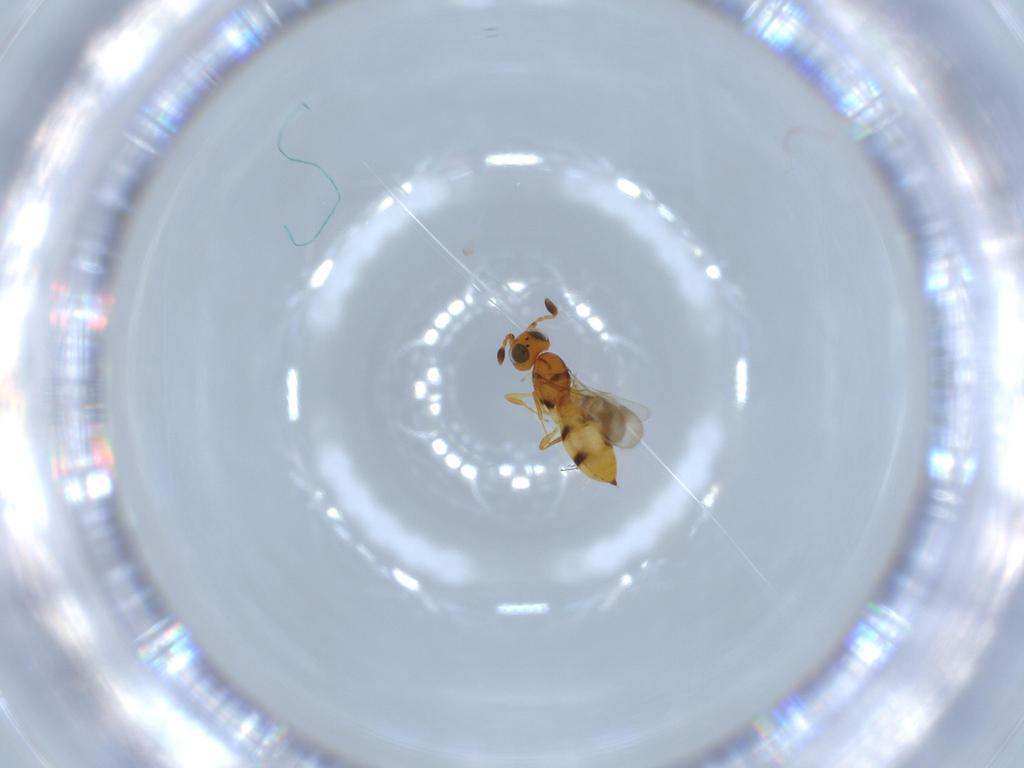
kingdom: Animalia
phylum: Arthropoda
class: Insecta
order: Hymenoptera
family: Scelionidae
